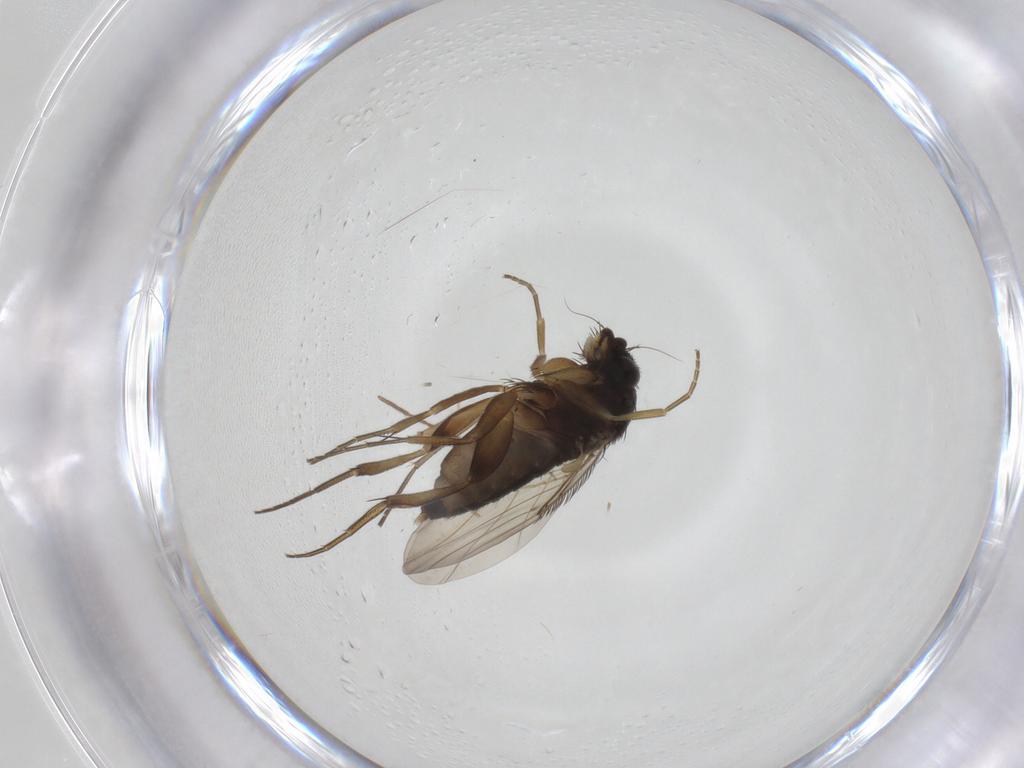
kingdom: Animalia
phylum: Arthropoda
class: Insecta
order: Diptera
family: Phoridae
